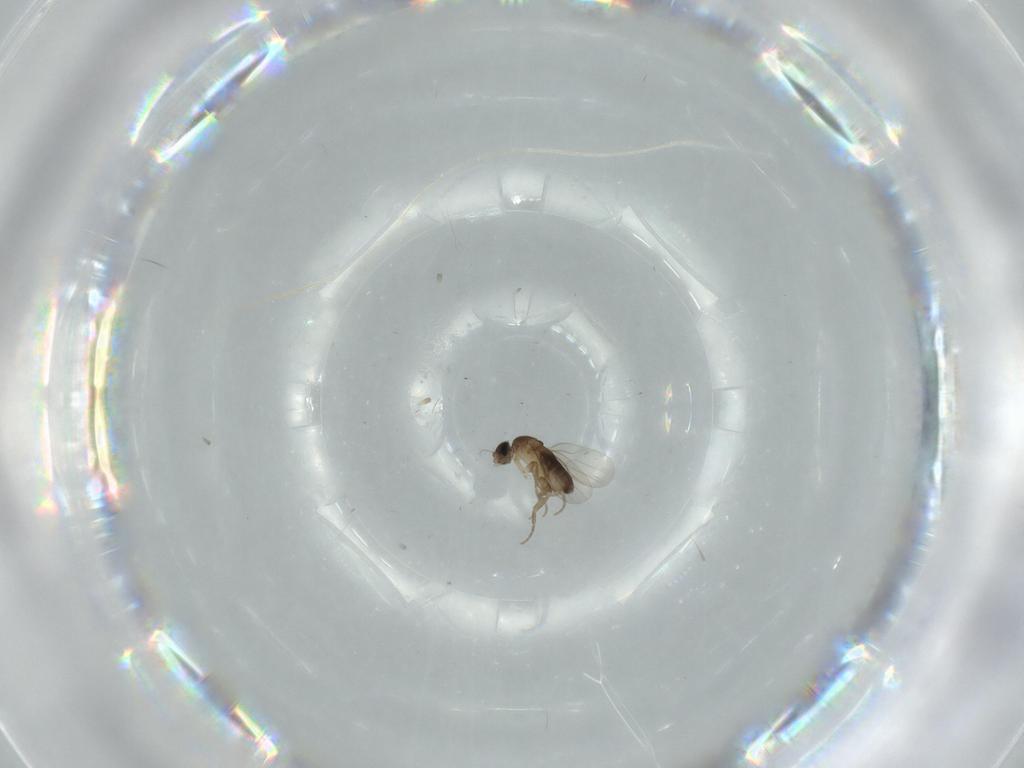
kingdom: Animalia
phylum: Arthropoda
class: Insecta
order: Diptera
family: Phoridae
